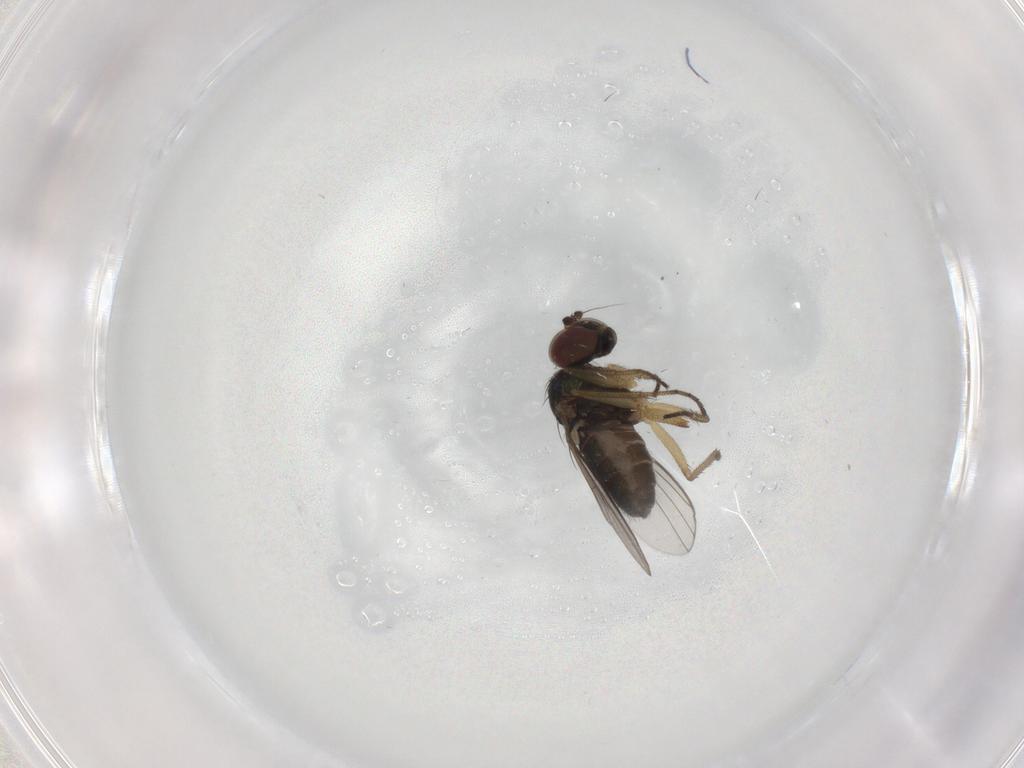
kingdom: Animalia
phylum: Arthropoda
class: Insecta
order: Diptera
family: Ceratopogonidae
